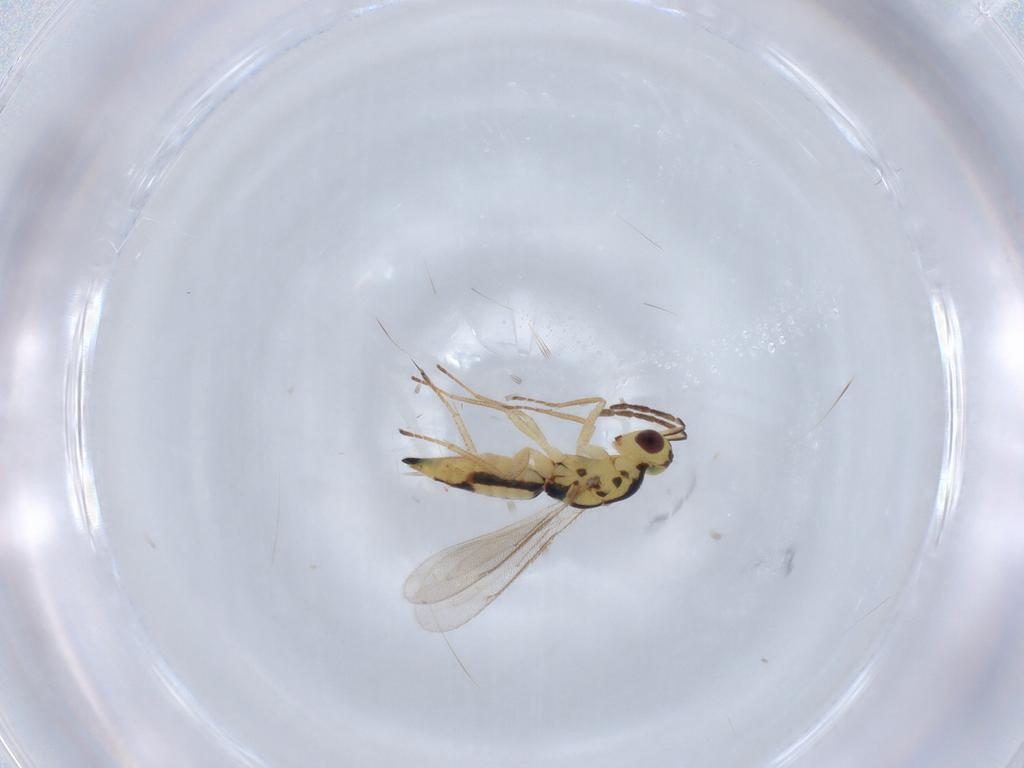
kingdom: Animalia
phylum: Arthropoda
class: Insecta
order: Hymenoptera
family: Eulophidae
